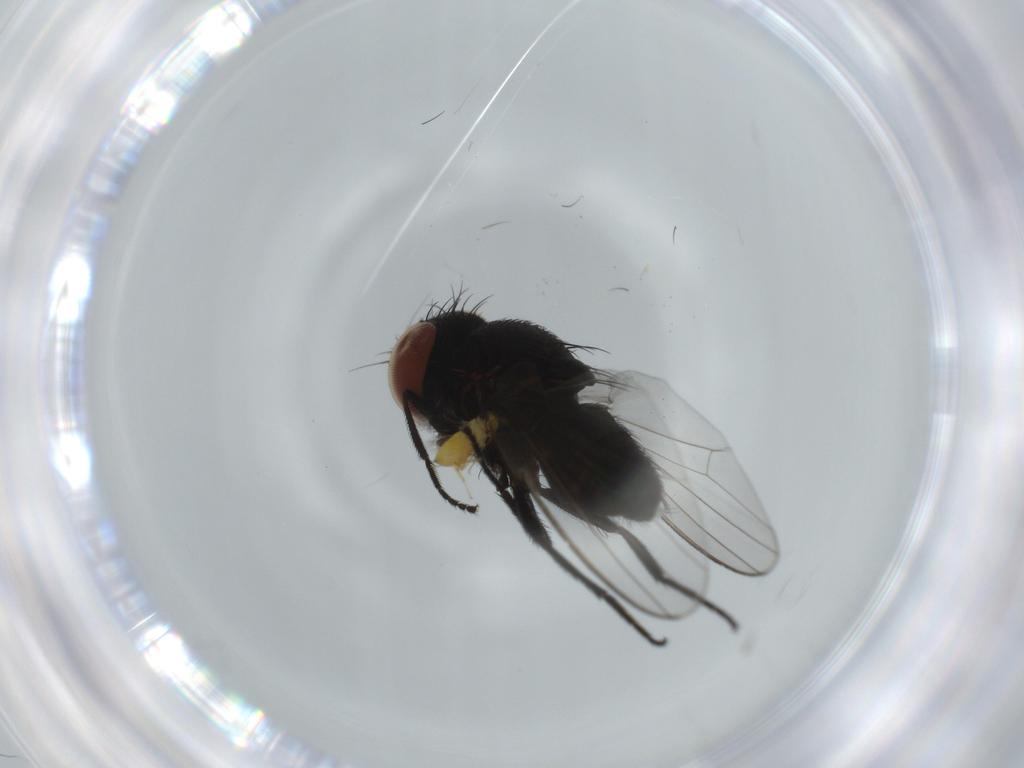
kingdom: Animalia
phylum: Arthropoda
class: Insecta
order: Diptera
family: Milichiidae
